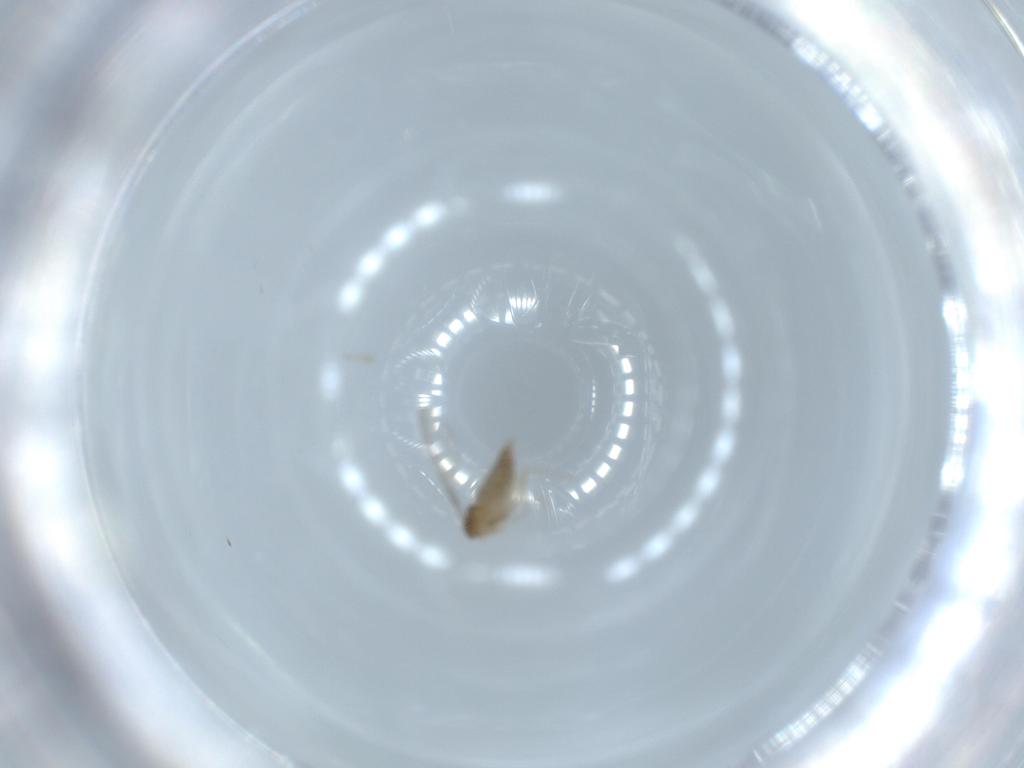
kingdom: Animalia
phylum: Arthropoda
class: Insecta
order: Diptera
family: Cecidomyiidae
